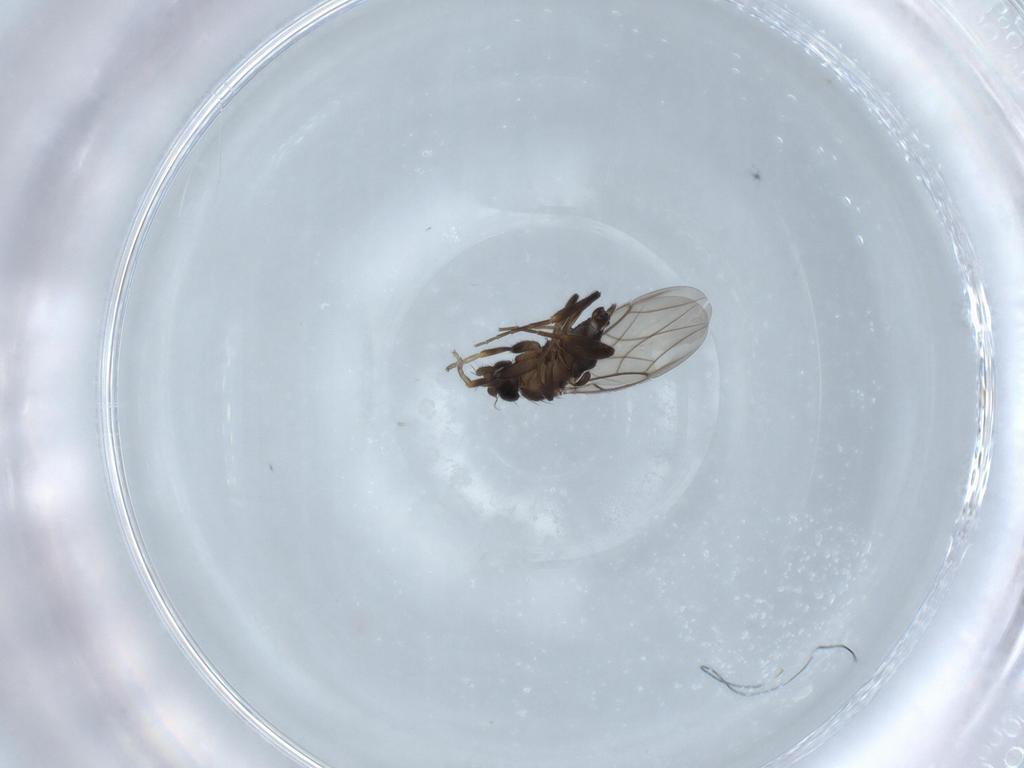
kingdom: Animalia
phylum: Arthropoda
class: Insecta
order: Diptera
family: Phoridae
